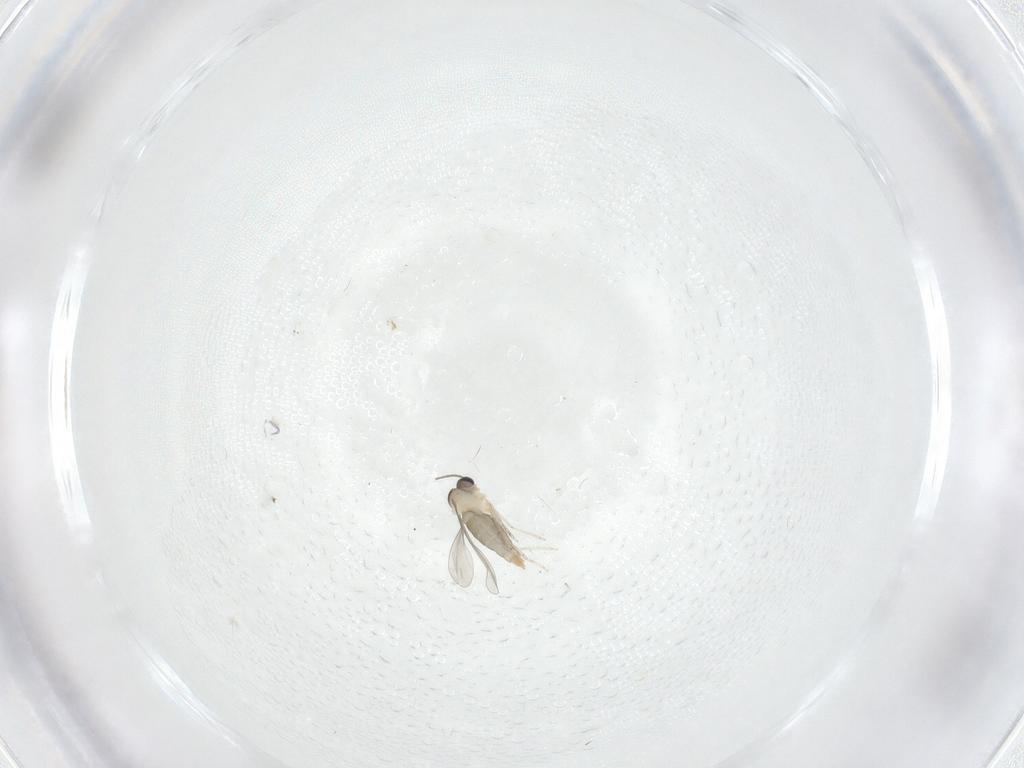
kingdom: Animalia
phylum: Arthropoda
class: Insecta
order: Diptera
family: Cecidomyiidae
